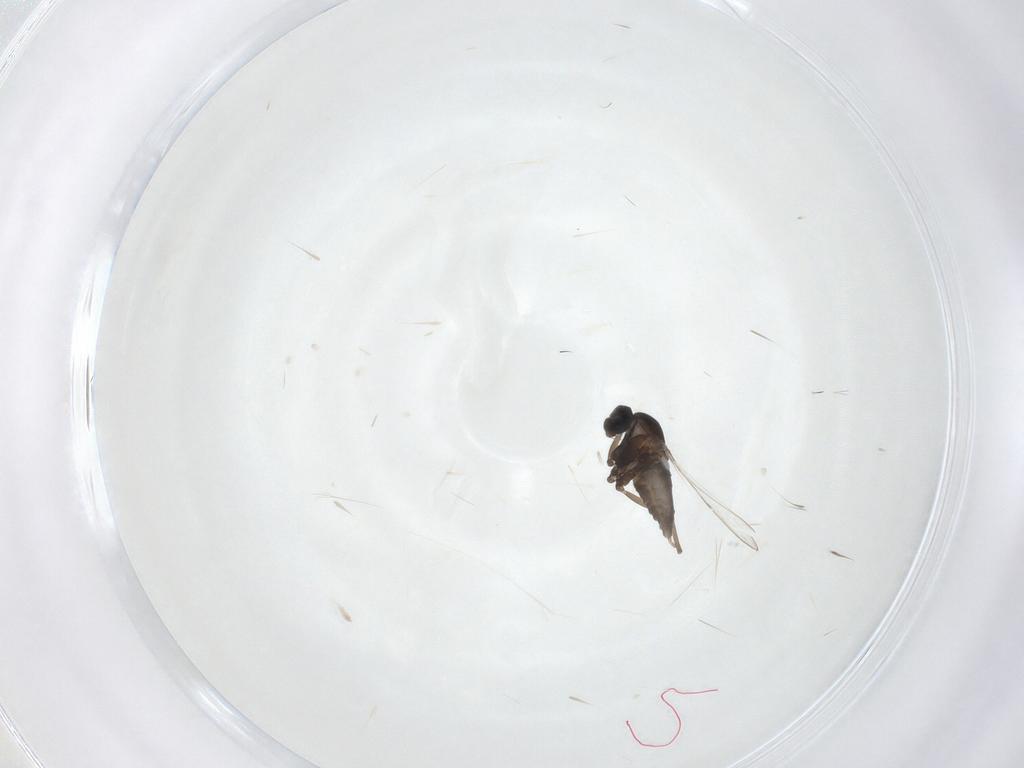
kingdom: Animalia
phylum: Arthropoda
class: Insecta
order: Diptera
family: Cecidomyiidae
